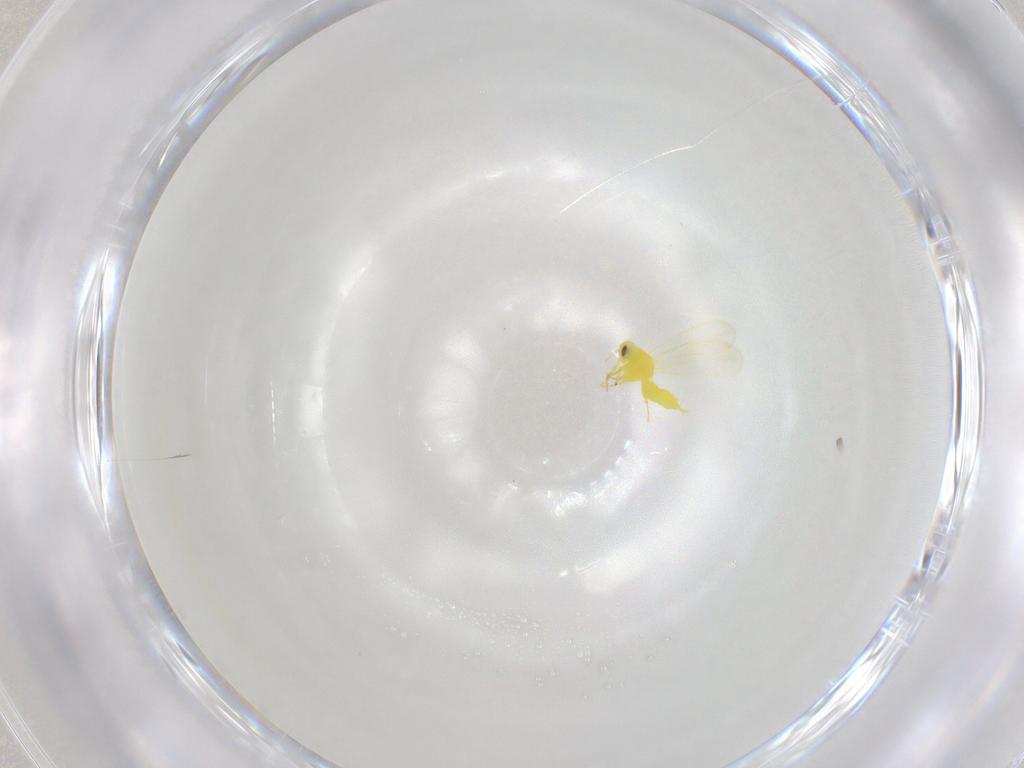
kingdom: Animalia
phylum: Arthropoda
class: Insecta
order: Hemiptera
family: Aleyrodidae
